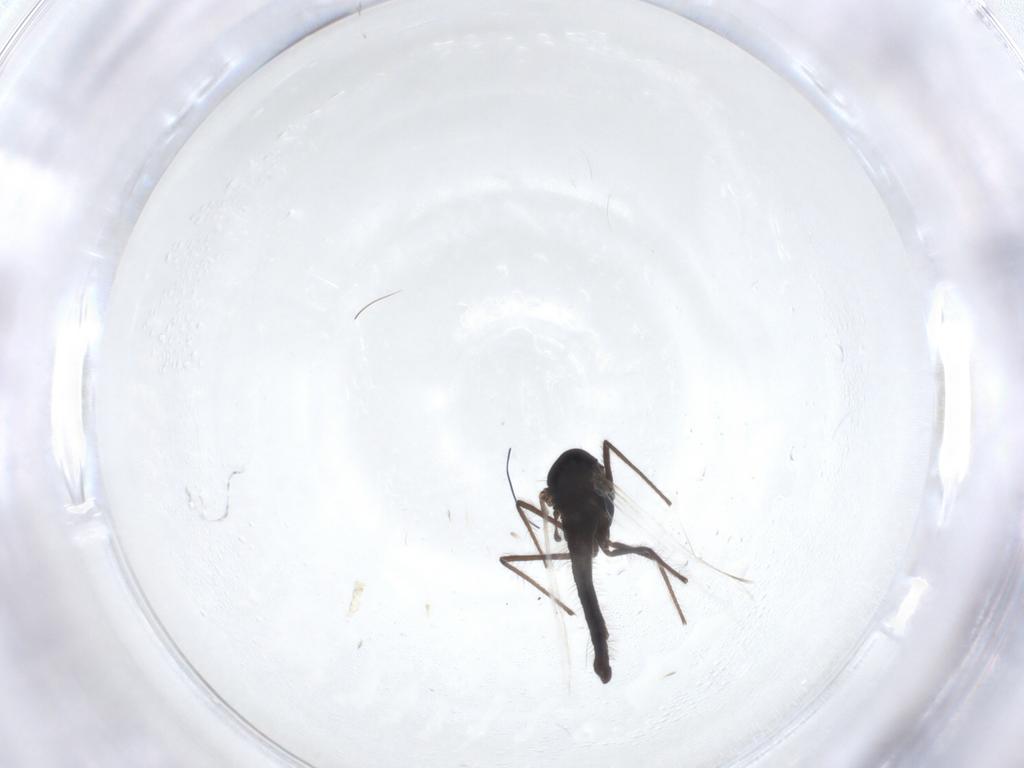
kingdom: Animalia
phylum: Arthropoda
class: Insecta
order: Diptera
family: Chironomidae
